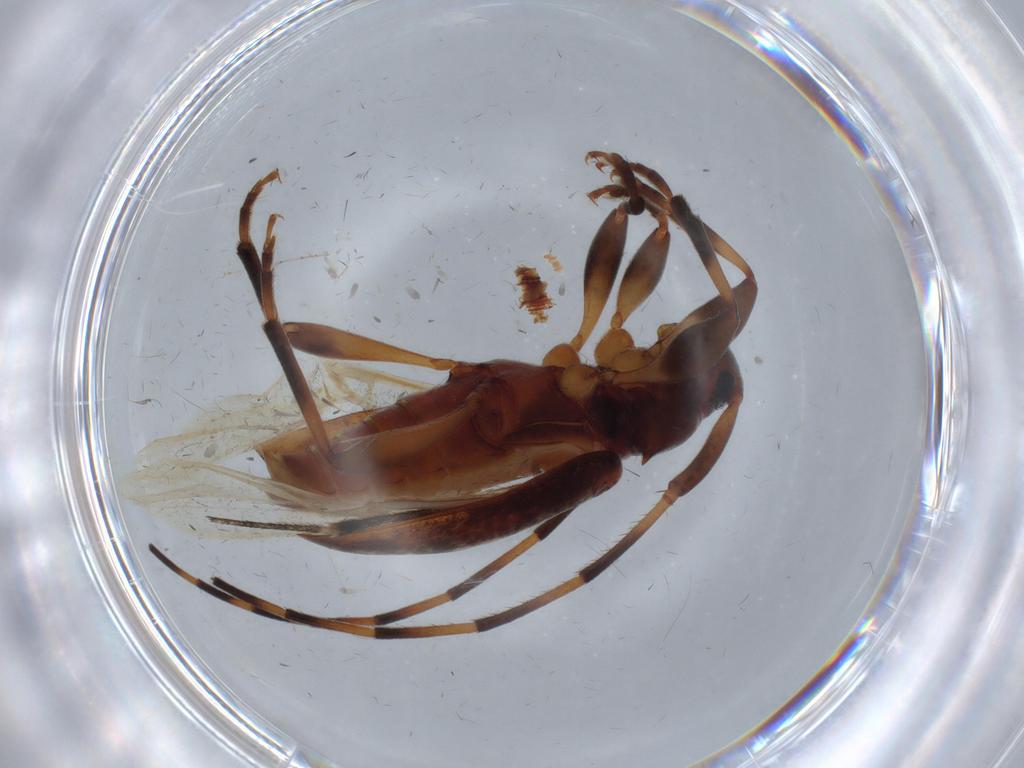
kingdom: Animalia
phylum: Arthropoda
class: Insecta
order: Coleoptera
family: Cerambycidae
